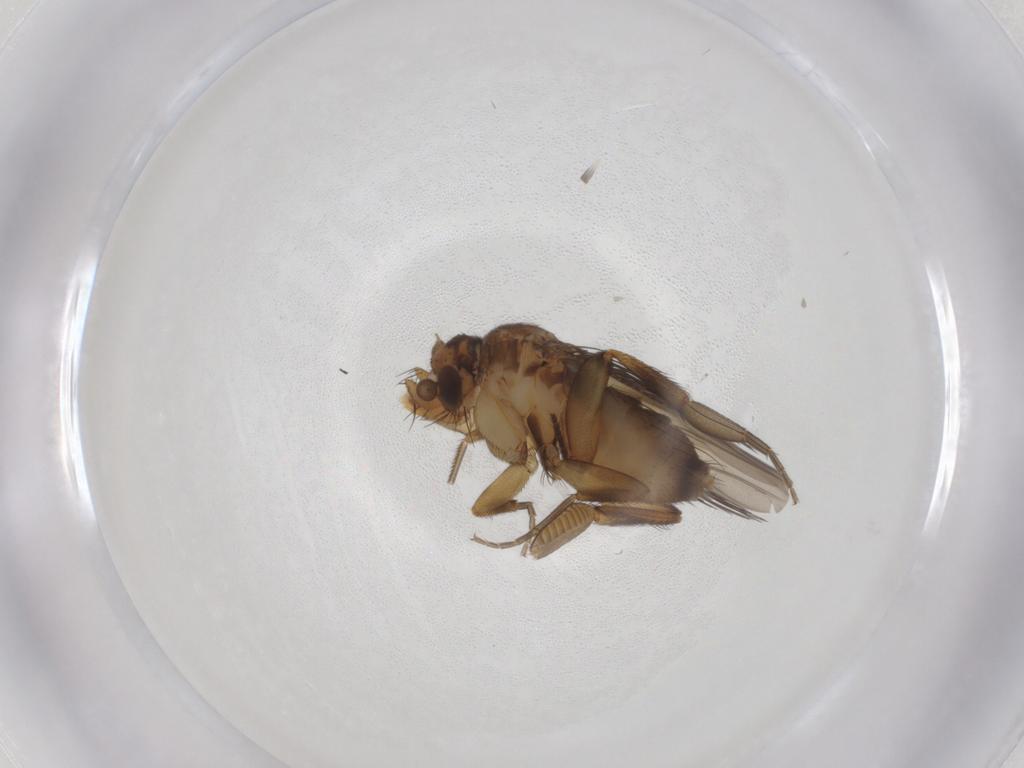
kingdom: Animalia
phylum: Arthropoda
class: Insecta
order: Diptera
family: Phoridae
